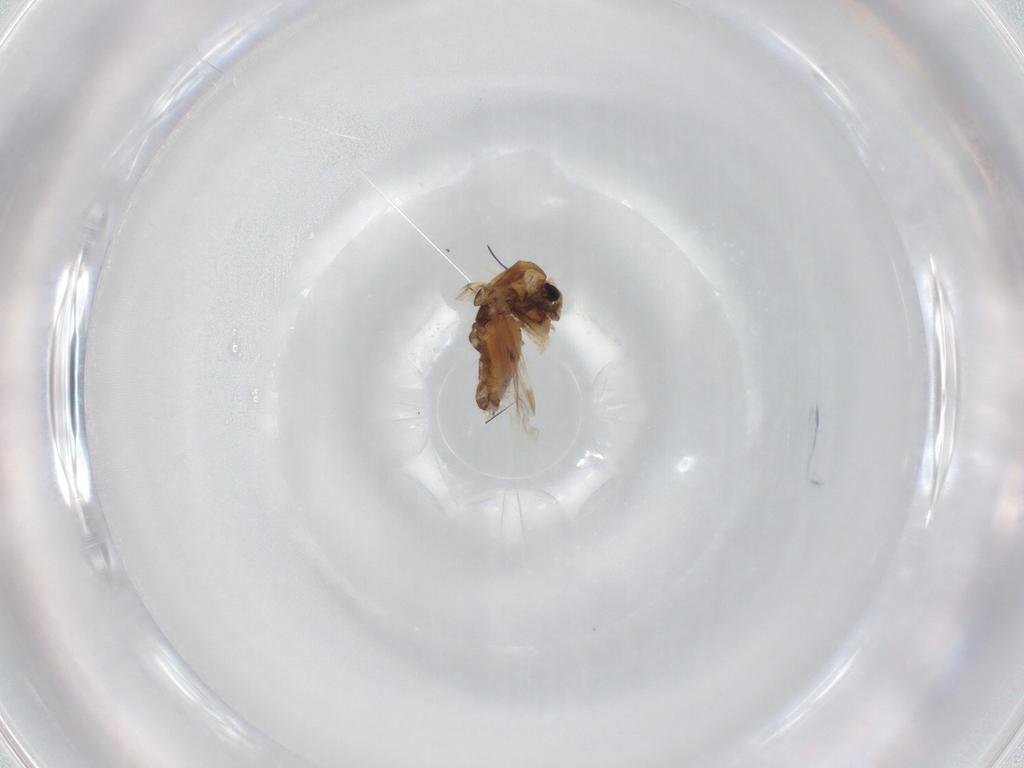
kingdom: Animalia
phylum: Arthropoda
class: Insecta
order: Diptera
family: Chironomidae
